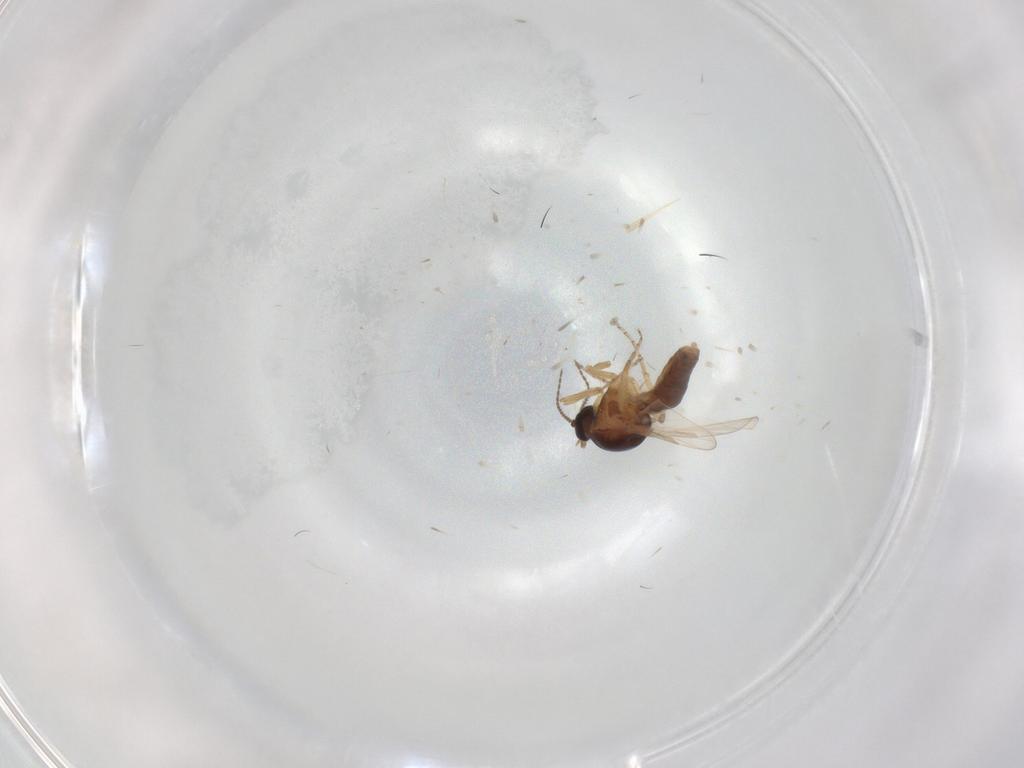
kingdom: Animalia
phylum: Arthropoda
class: Insecta
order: Diptera
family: Ceratopogonidae
